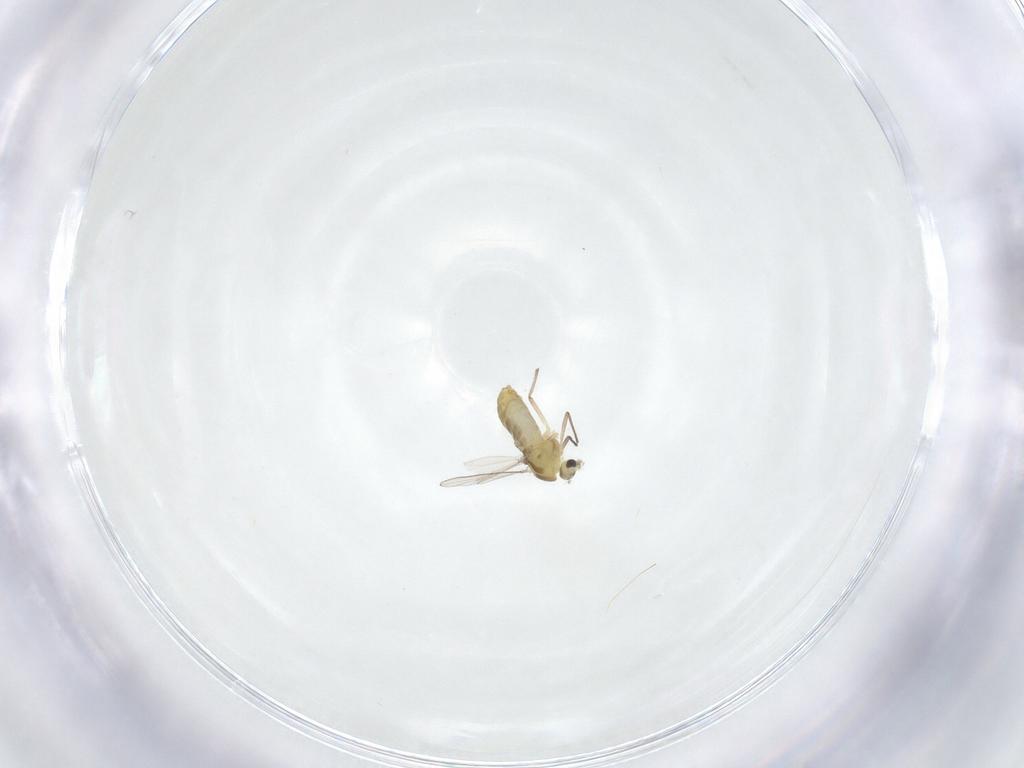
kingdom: Animalia
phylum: Arthropoda
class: Insecta
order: Diptera
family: Chironomidae
